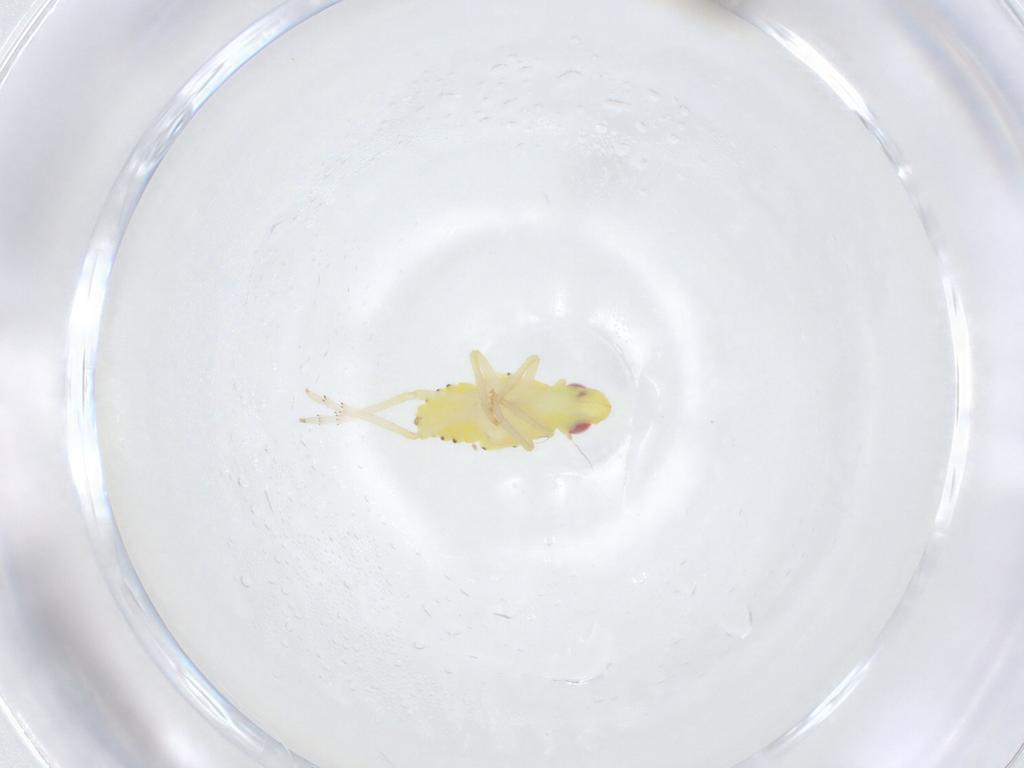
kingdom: Animalia
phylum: Arthropoda
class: Insecta
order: Hemiptera
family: Tropiduchidae
